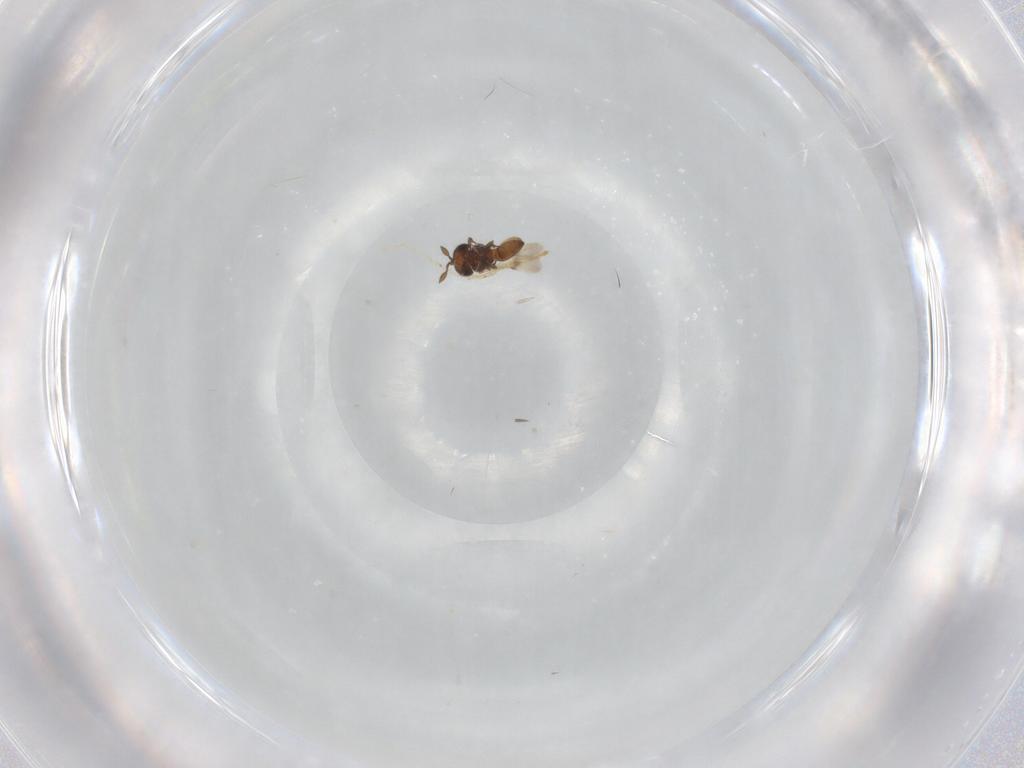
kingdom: Animalia
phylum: Arthropoda
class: Insecta
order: Hymenoptera
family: Scelionidae
